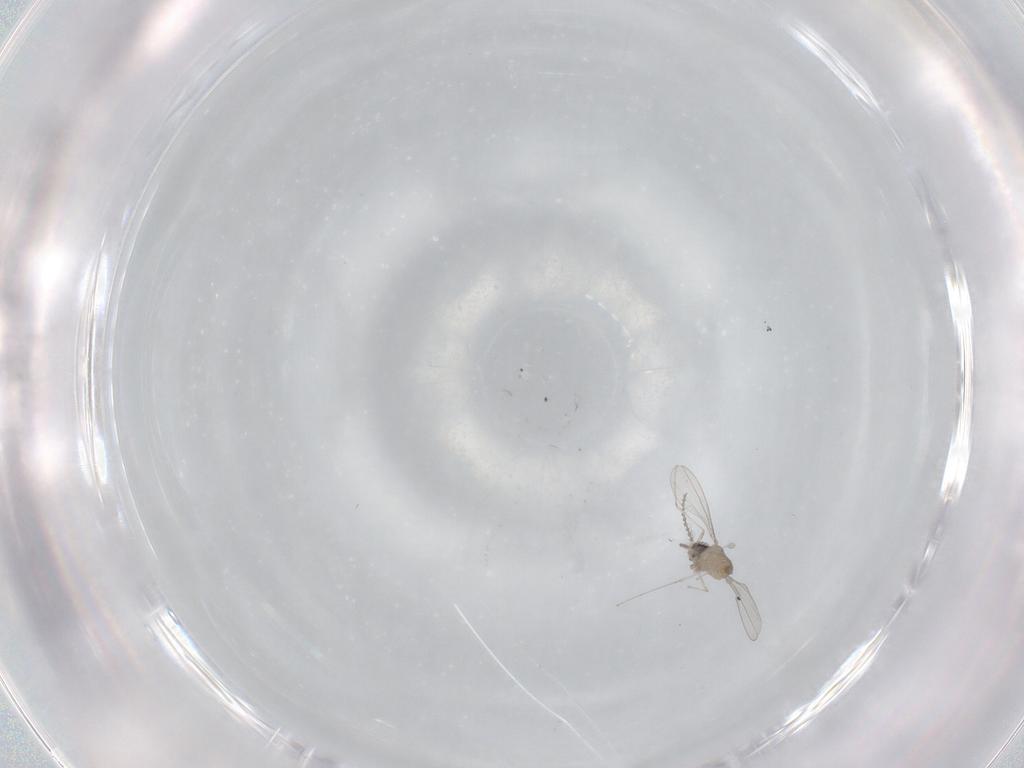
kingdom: Animalia
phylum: Arthropoda
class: Insecta
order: Diptera
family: Cecidomyiidae
